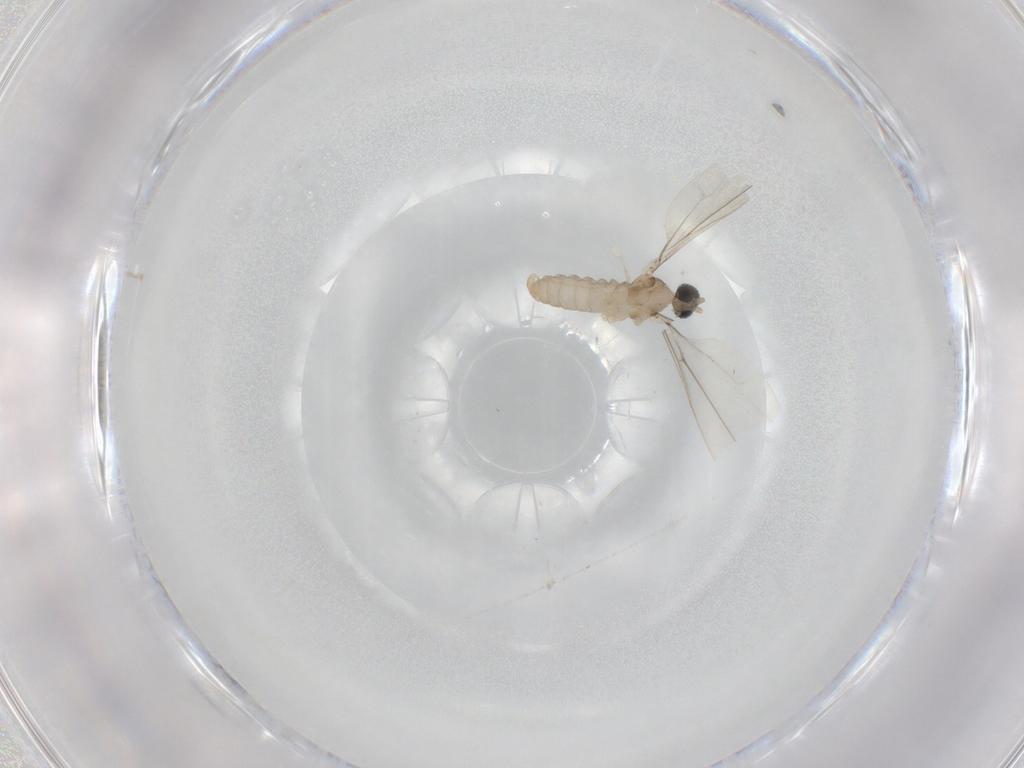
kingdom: Animalia
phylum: Arthropoda
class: Insecta
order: Diptera
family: Cecidomyiidae
